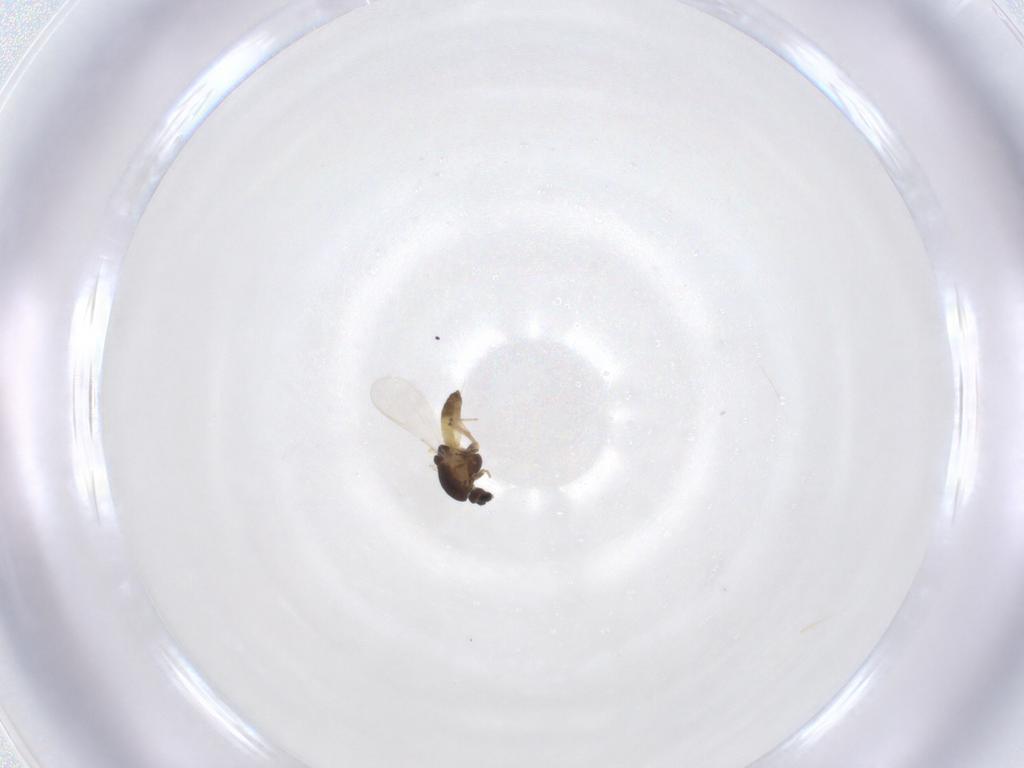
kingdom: Animalia
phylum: Arthropoda
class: Insecta
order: Diptera
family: Chironomidae
